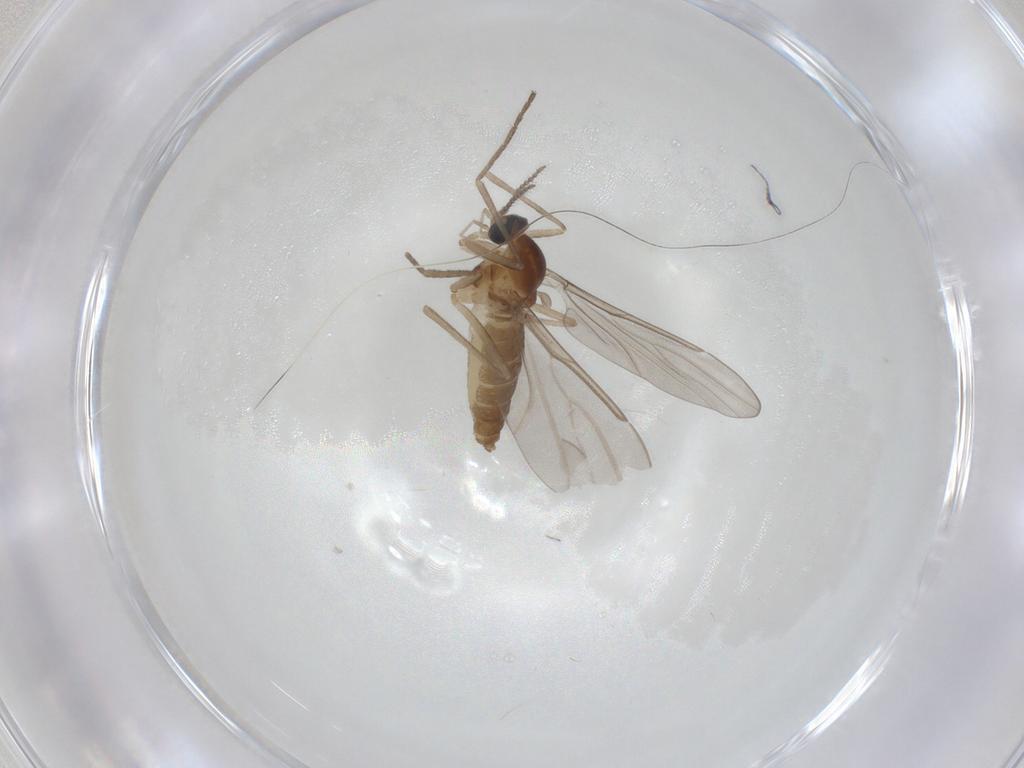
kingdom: Animalia
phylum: Arthropoda
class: Insecta
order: Diptera
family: Cecidomyiidae
